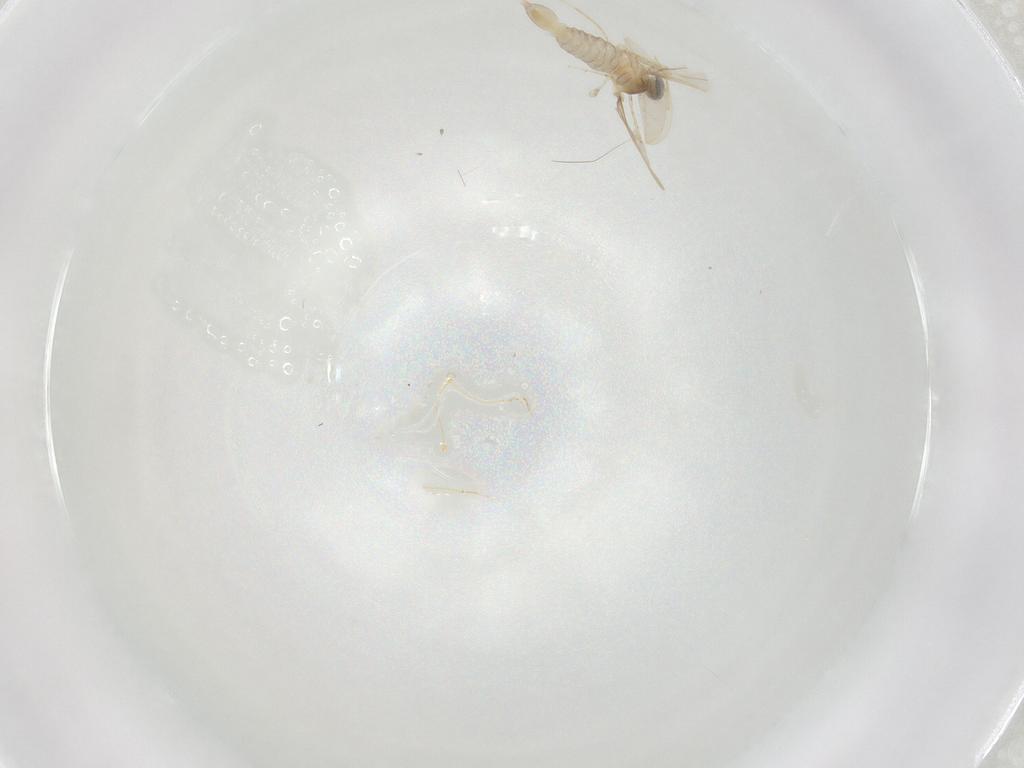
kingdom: Animalia
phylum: Arthropoda
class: Insecta
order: Diptera
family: Cecidomyiidae
